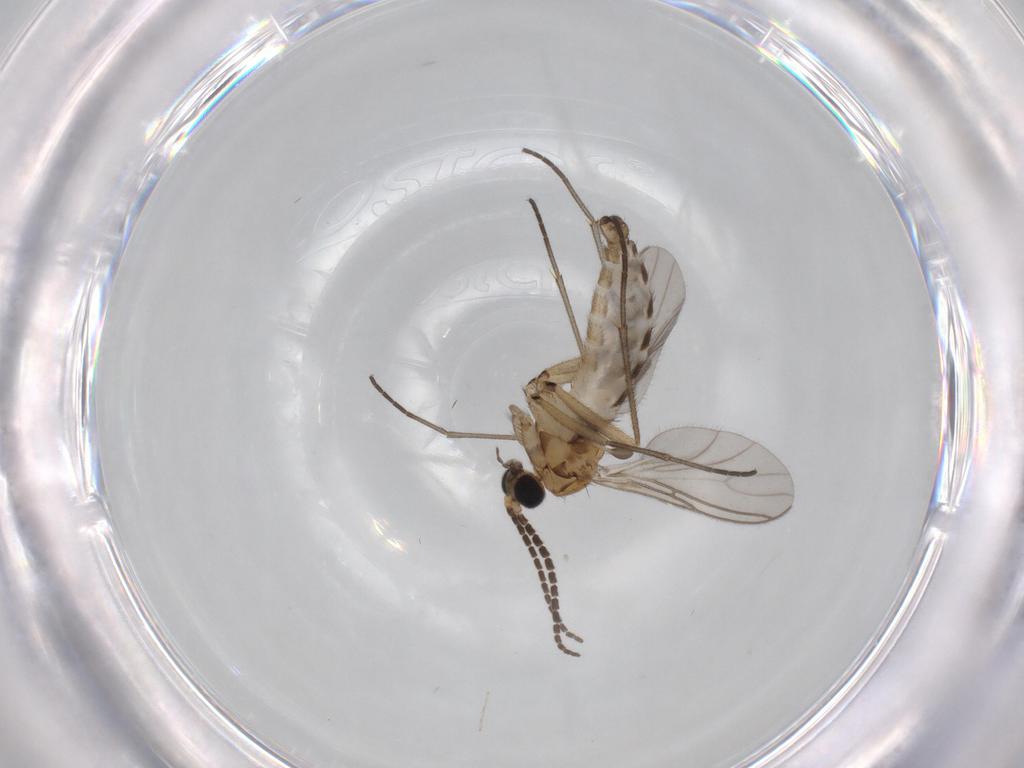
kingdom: Animalia
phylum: Arthropoda
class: Insecta
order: Diptera
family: Sciaridae
